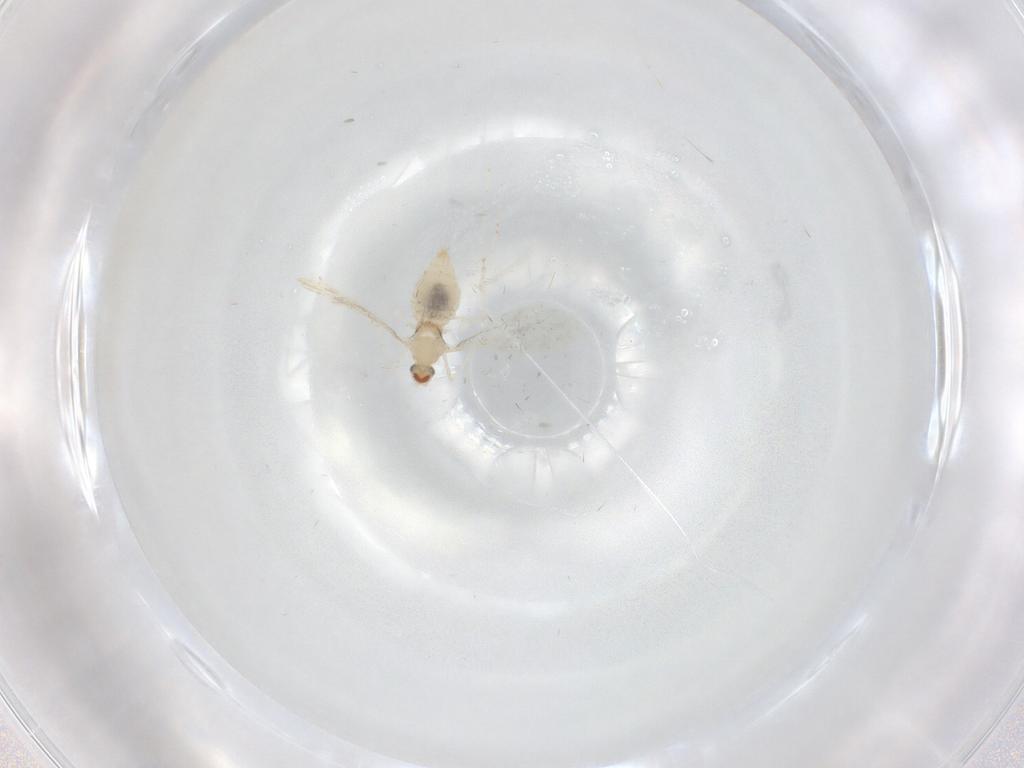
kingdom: Animalia
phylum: Arthropoda
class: Insecta
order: Diptera
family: Cecidomyiidae
